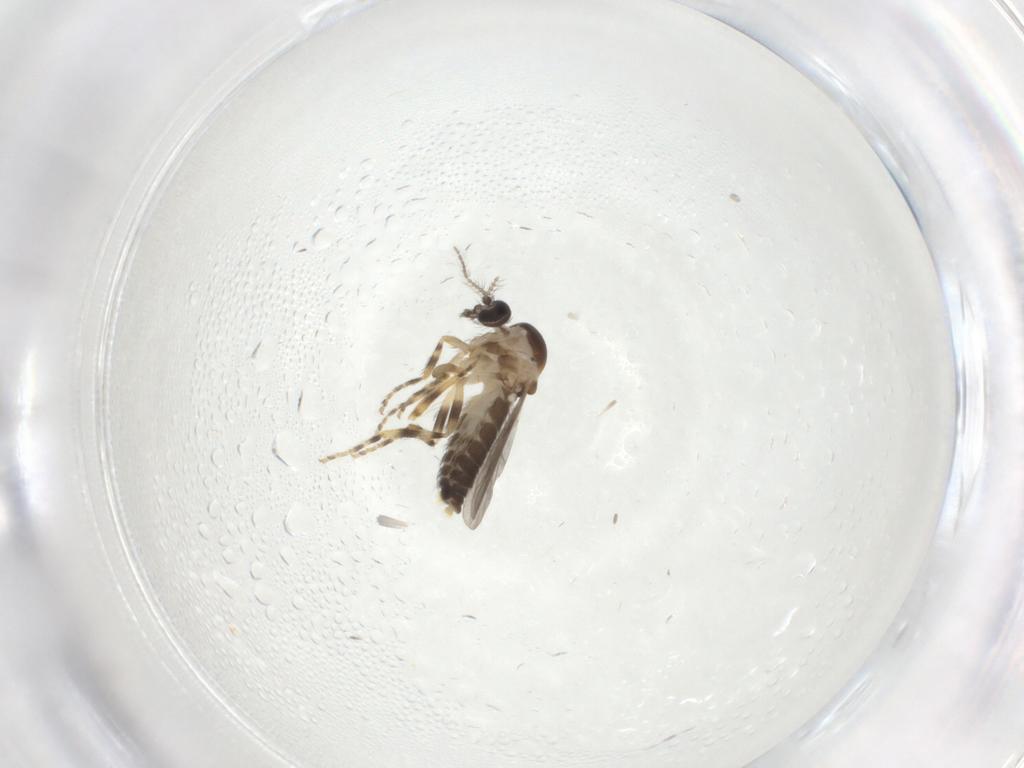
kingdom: Animalia
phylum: Arthropoda
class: Insecta
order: Diptera
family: Ceratopogonidae
